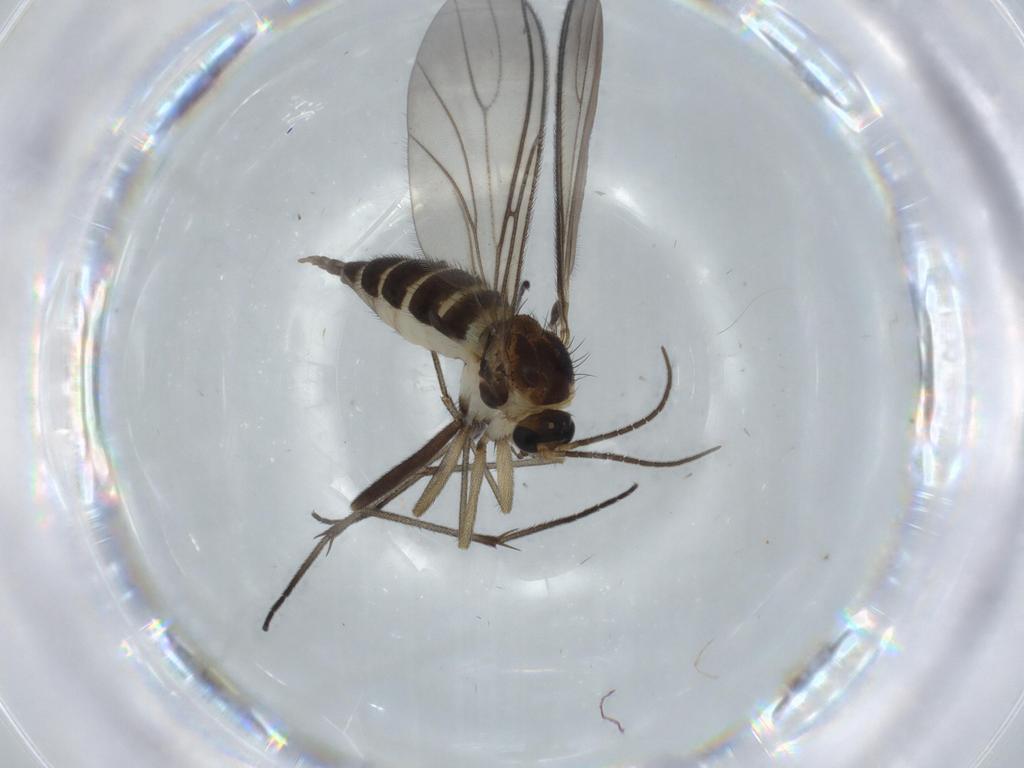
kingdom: Animalia
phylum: Arthropoda
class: Insecta
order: Diptera
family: Sciaridae
